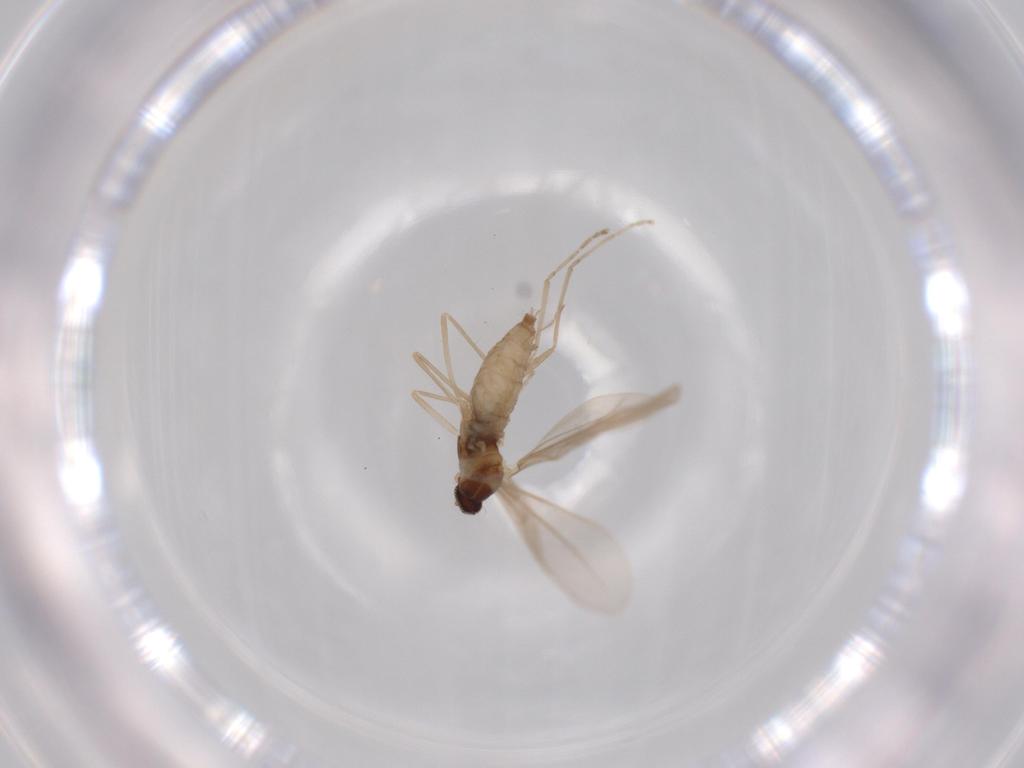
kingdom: Animalia
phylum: Arthropoda
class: Insecta
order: Diptera
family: Cecidomyiidae
